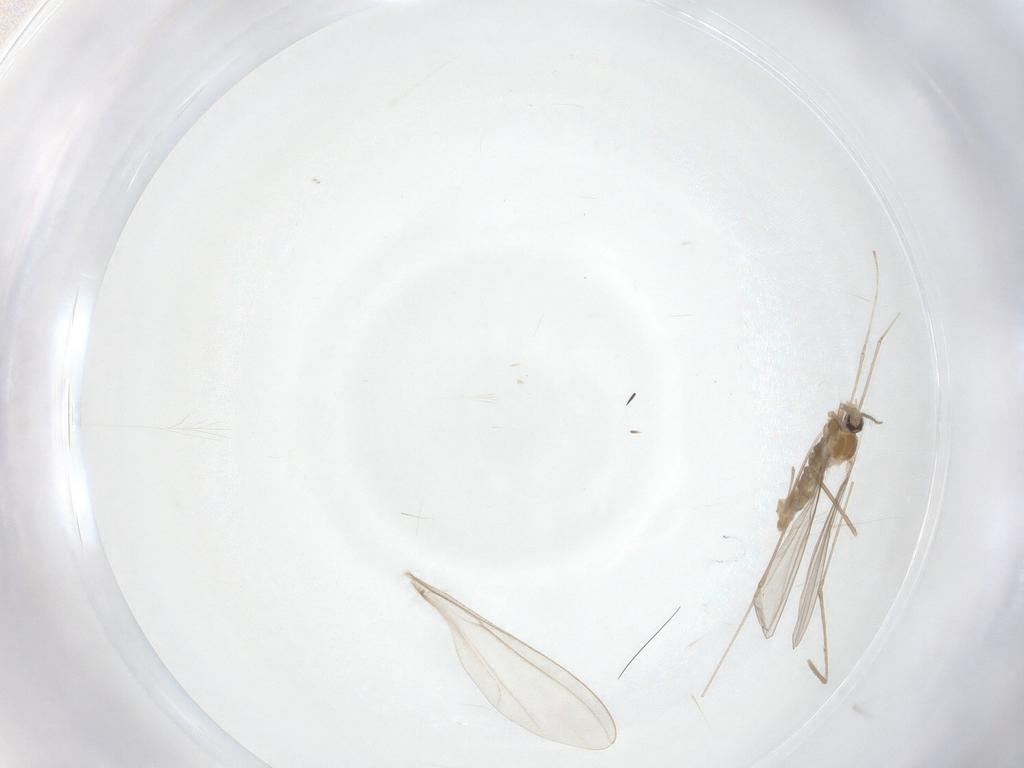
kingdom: Animalia
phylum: Arthropoda
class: Insecta
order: Diptera
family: Cecidomyiidae
